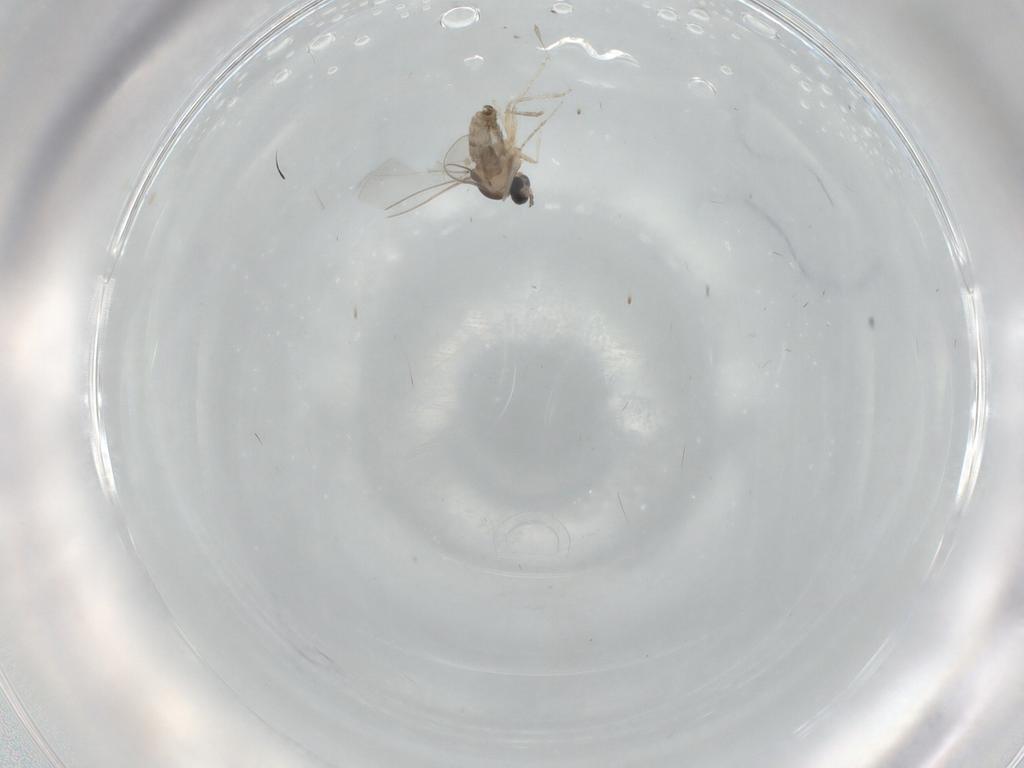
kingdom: Animalia
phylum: Arthropoda
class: Insecta
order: Diptera
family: Cecidomyiidae
